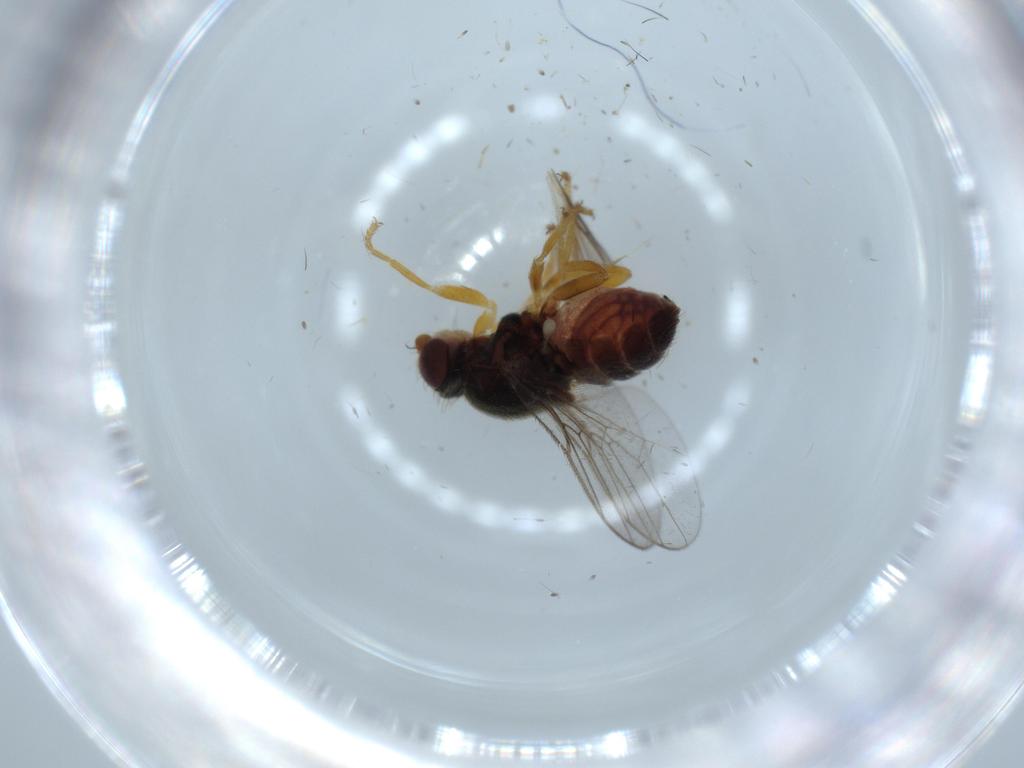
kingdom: Animalia
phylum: Arthropoda
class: Insecta
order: Diptera
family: Chloropidae
